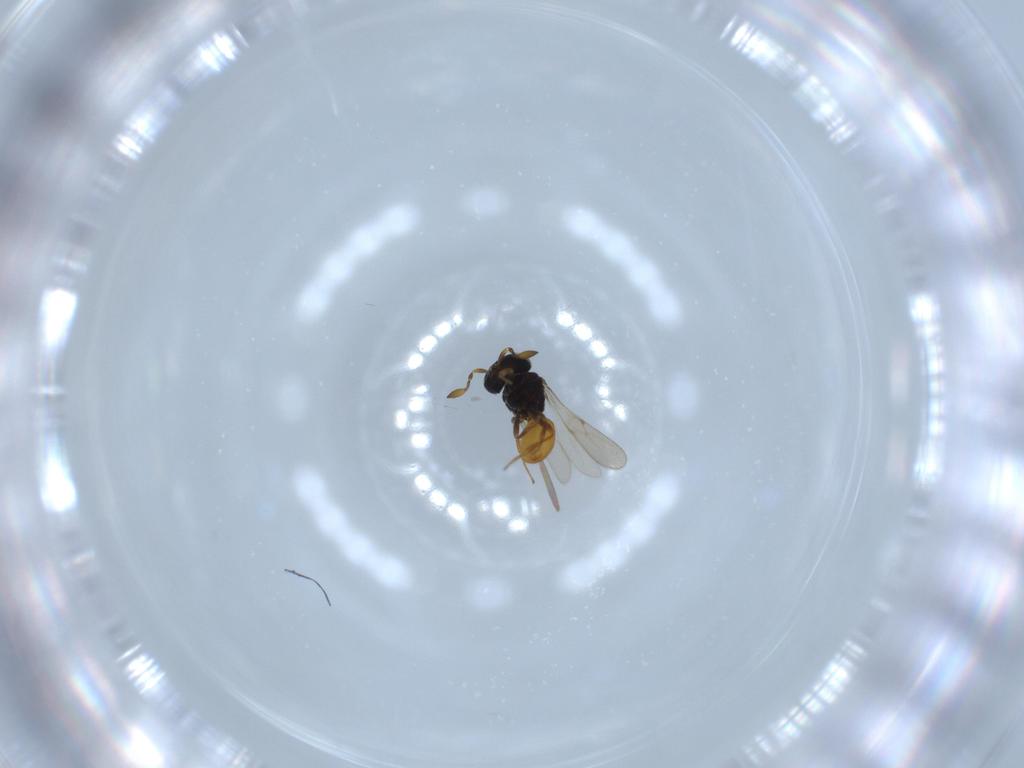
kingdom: Animalia
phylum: Arthropoda
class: Insecta
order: Hymenoptera
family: Scelionidae
